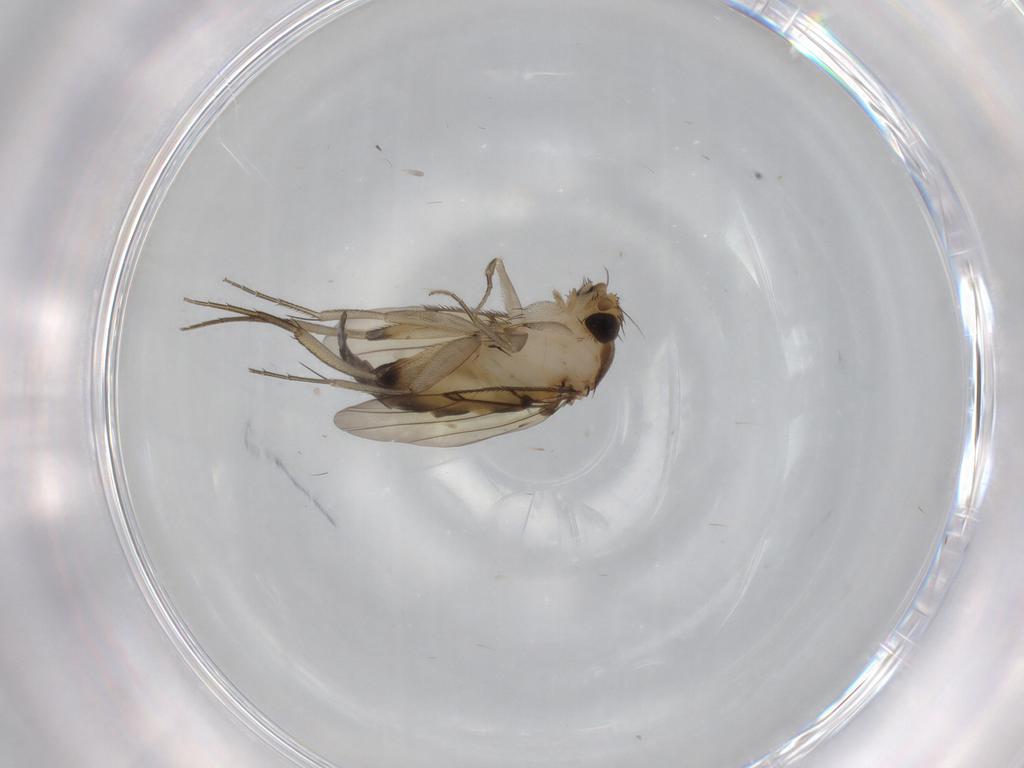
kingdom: Animalia
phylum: Arthropoda
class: Insecta
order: Diptera
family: Phoridae
